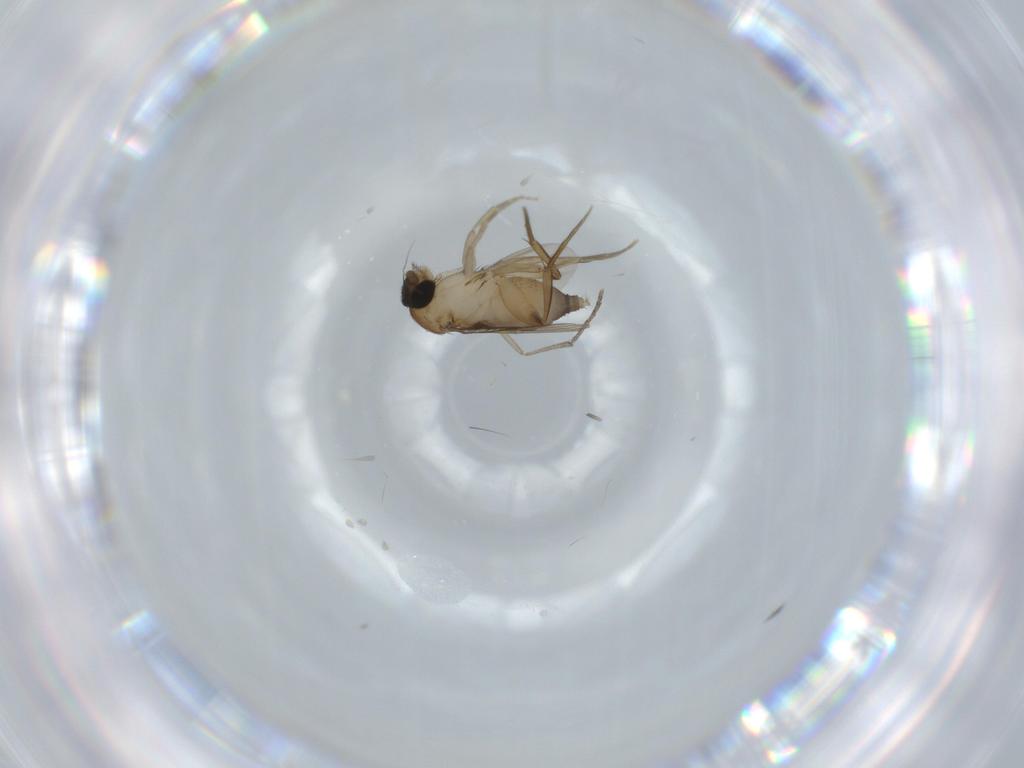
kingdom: Animalia
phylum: Arthropoda
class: Insecta
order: Diptera
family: Phoridae
